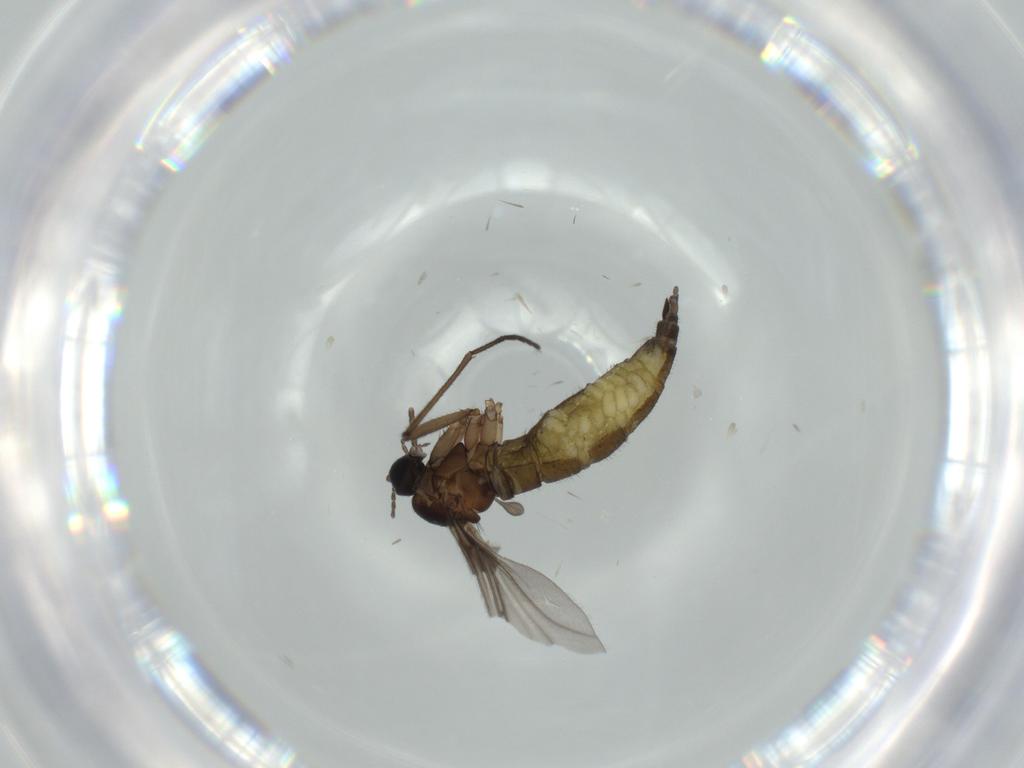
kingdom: Animalia
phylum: Arthropoda
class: Insecta
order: Diptera
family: Sciaridae
